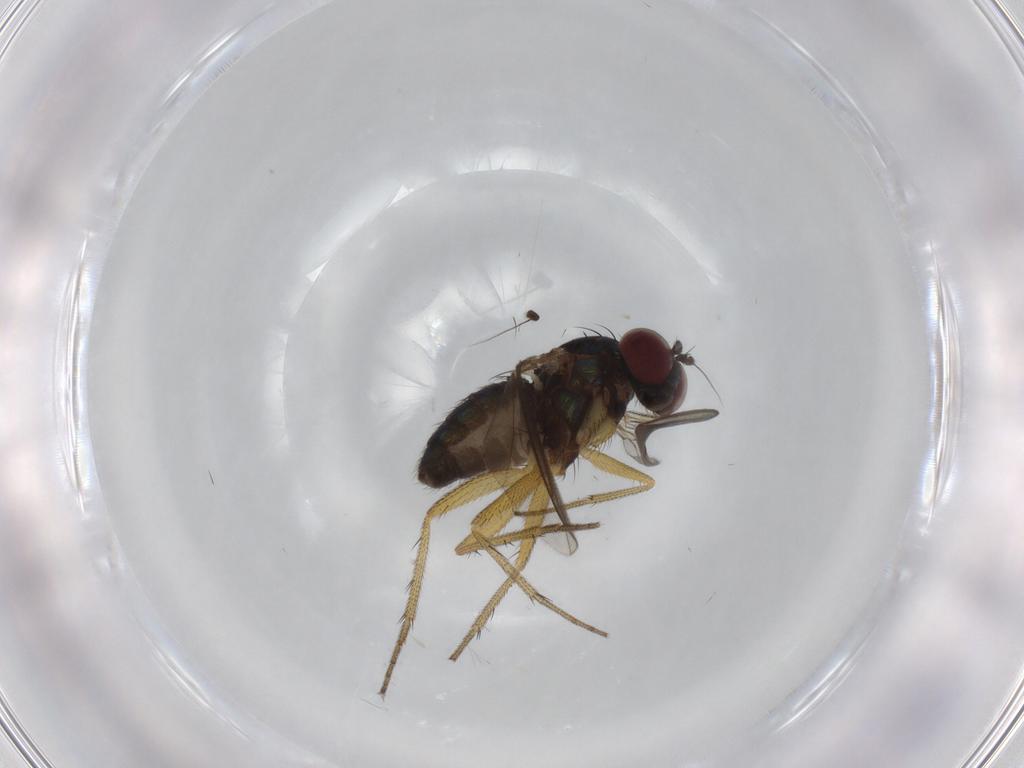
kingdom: Animalia
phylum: Arthropoda
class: Insecta
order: Diptera
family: Dolichopodidae
